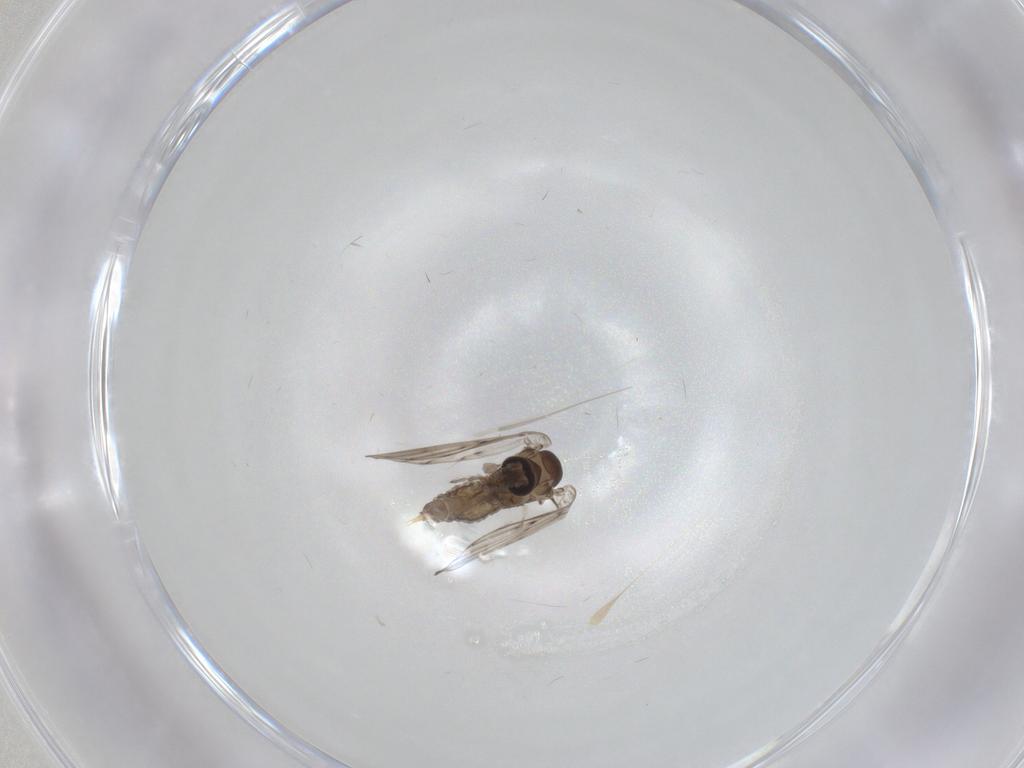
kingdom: Animalia
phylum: Arthropoda
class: Insecta
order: Diptera
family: Psychodidae
